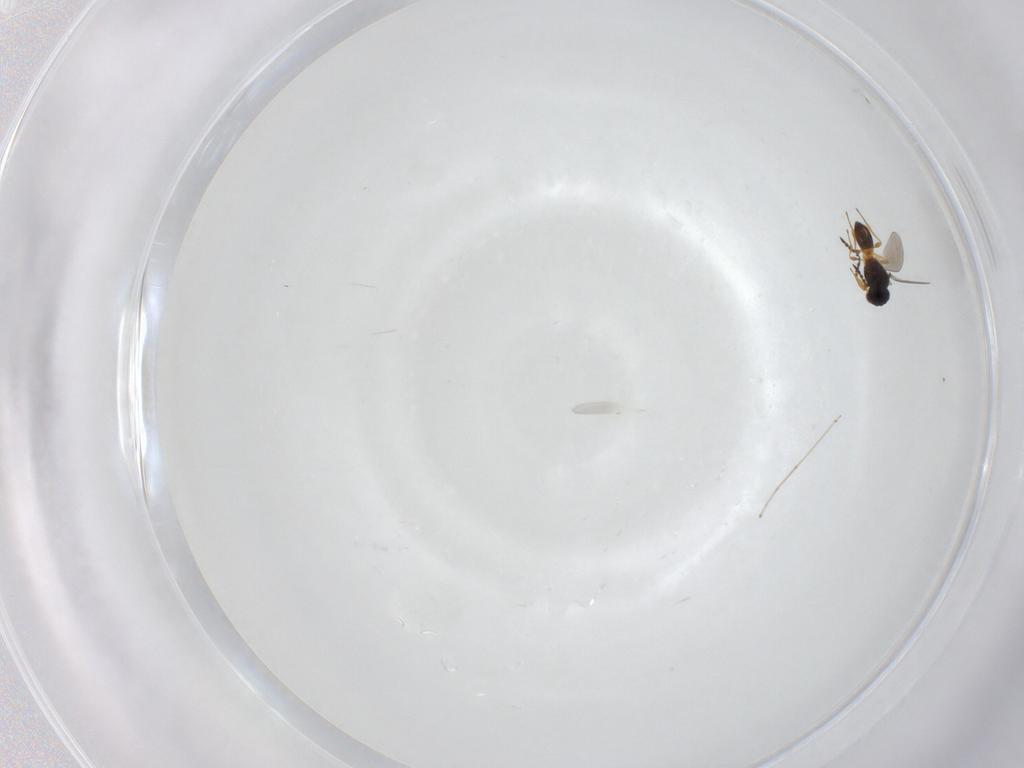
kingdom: Animalia
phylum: Arthropoda
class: Insecta
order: Hymenoptera
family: Platygastridae
